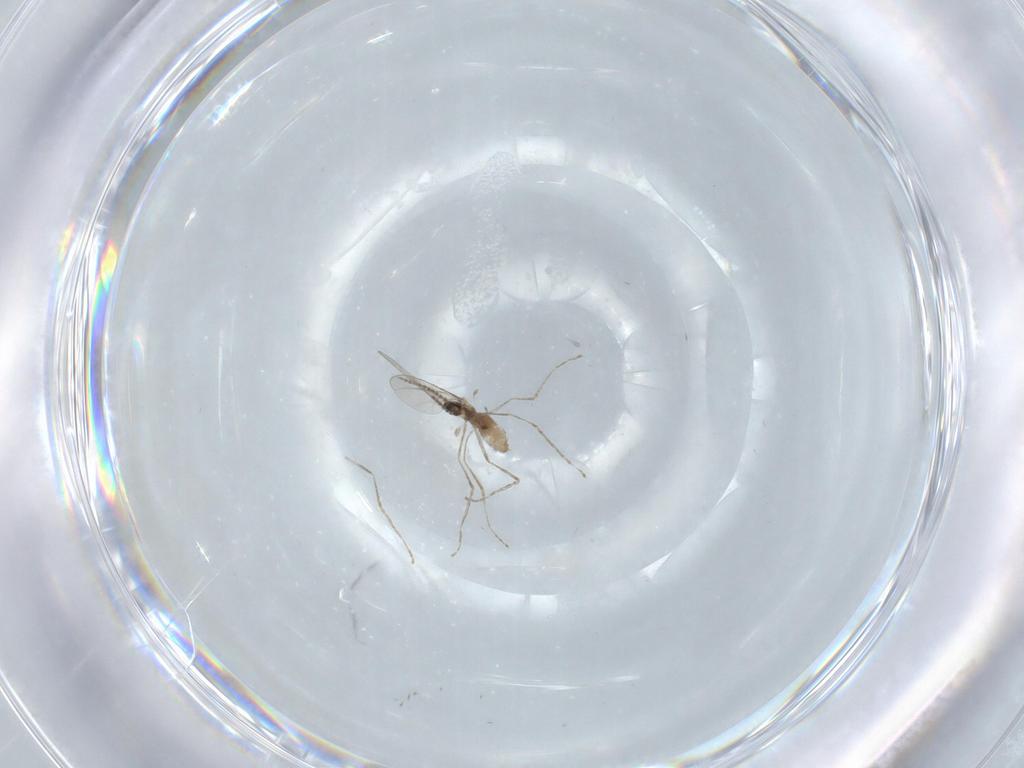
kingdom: Animalia
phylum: Arthropoda
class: Insecta
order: Diptera
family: Cecidomyiidae
